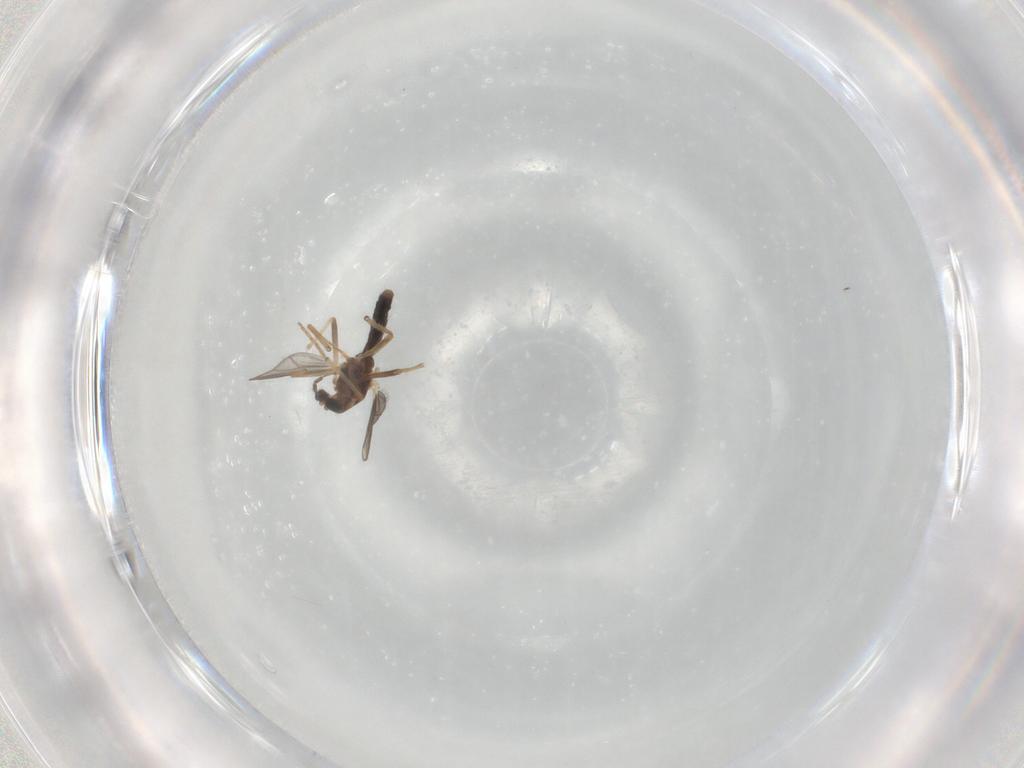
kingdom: Animalia
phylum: Arthropoda
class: Insecta
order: Diptera
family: Chironomidae
